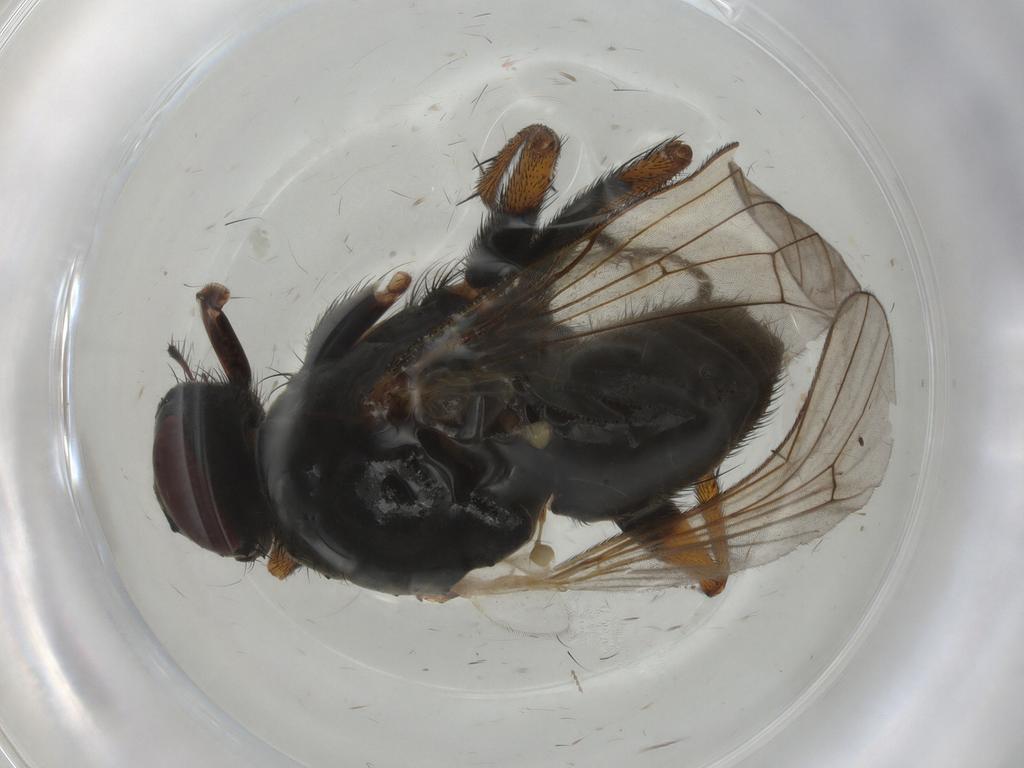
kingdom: Animalia
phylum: Arthropoda
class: Insecta
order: Diptera
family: Muscidae
